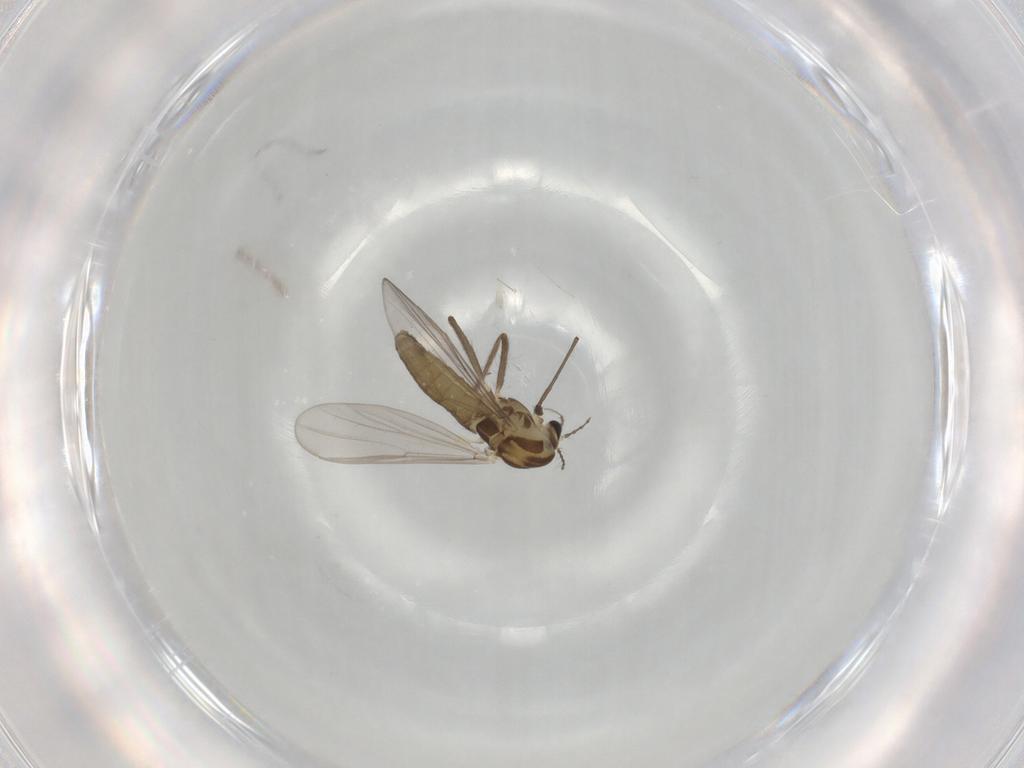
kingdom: Animalia
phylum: Arthropoda
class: Insecta
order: Diptera
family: Chironomidae
